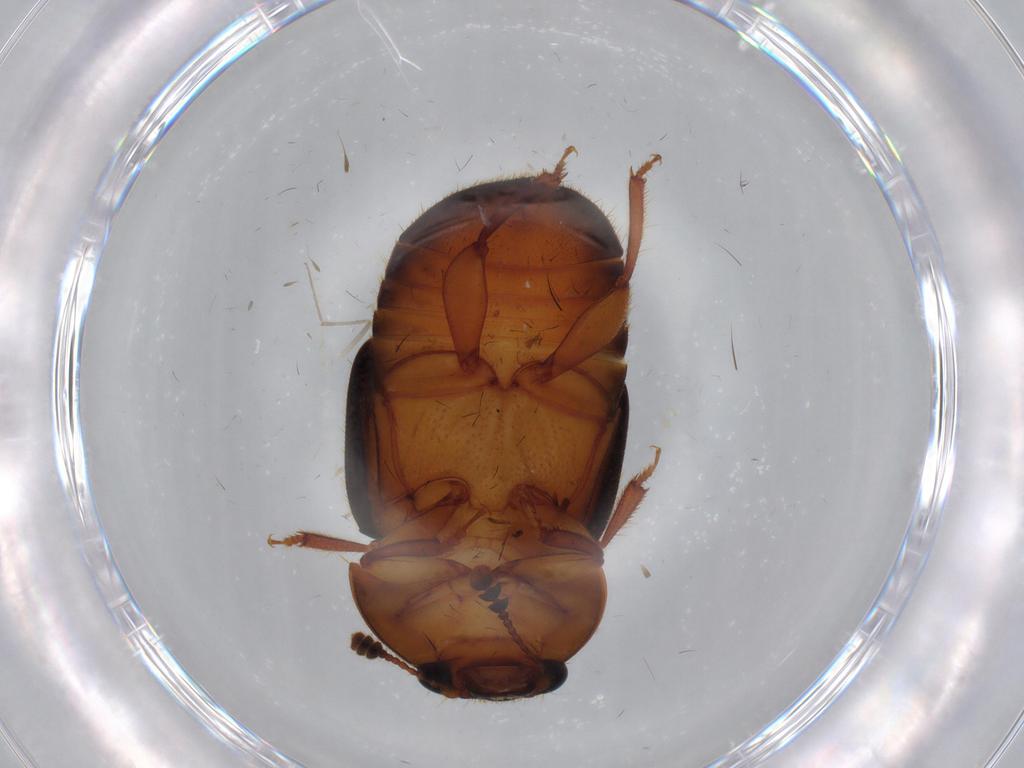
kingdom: Animalia
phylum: Arthropoda
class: Insecta
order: Coleoptera
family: Nitidulidae
